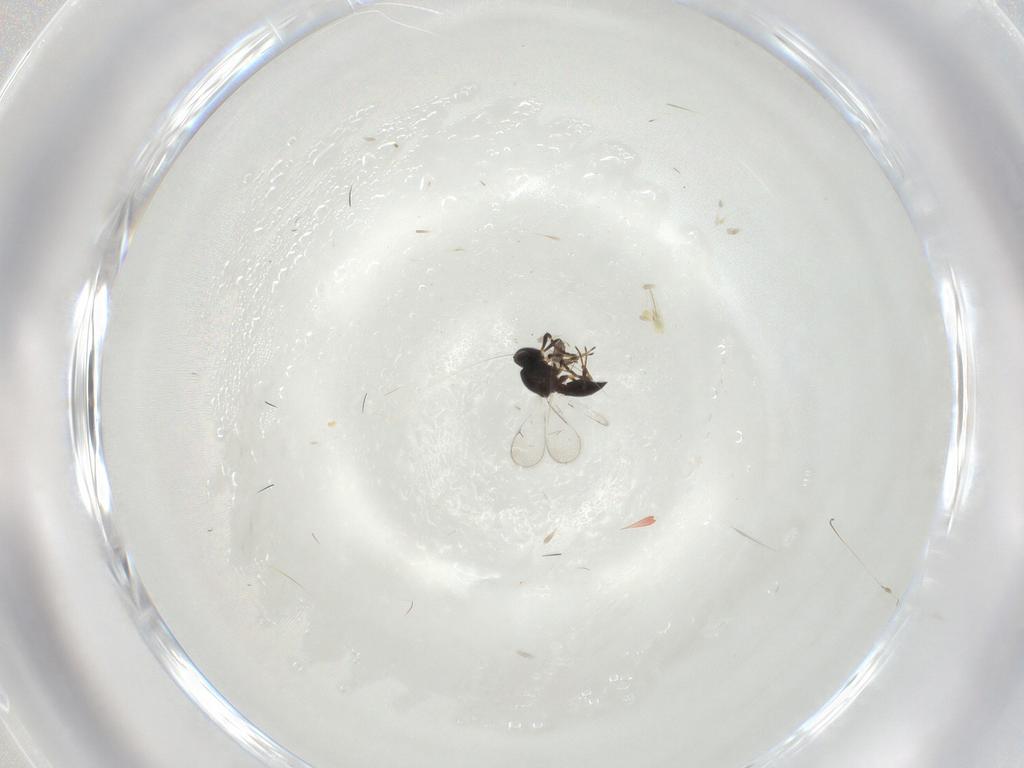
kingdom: Animalia
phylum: Arthropoda
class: Insecta
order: Hymenoptera
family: Platygastridae
